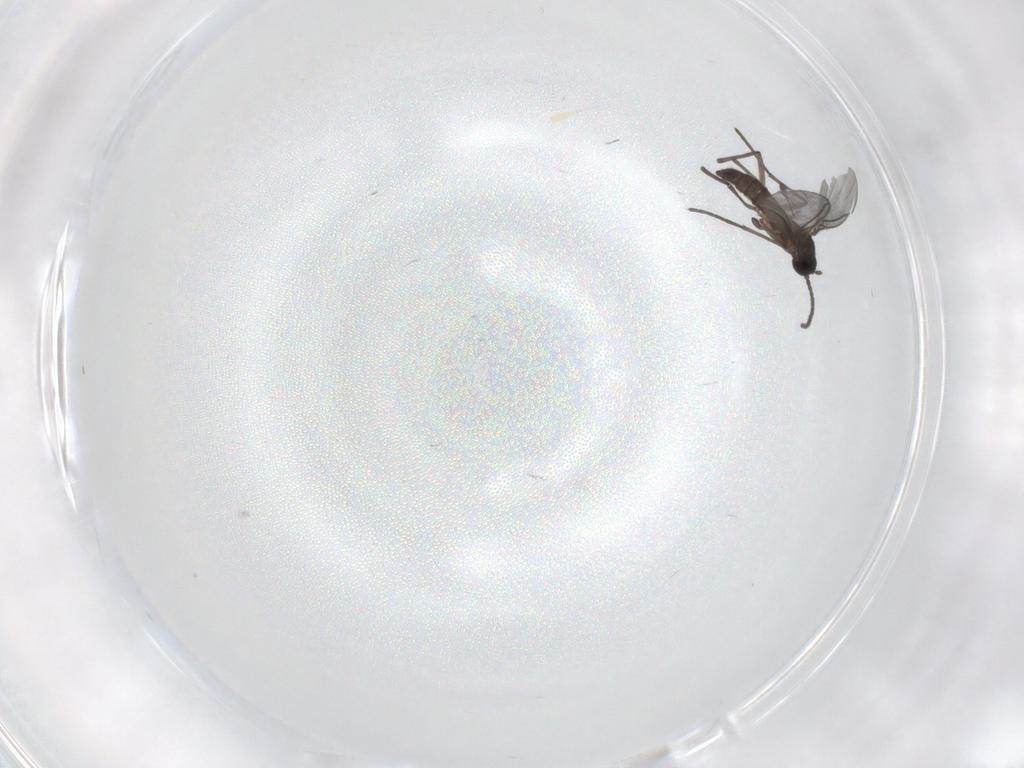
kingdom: Animalia
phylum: Arthropoda
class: Insecta
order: Diptera
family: Sciaridae
